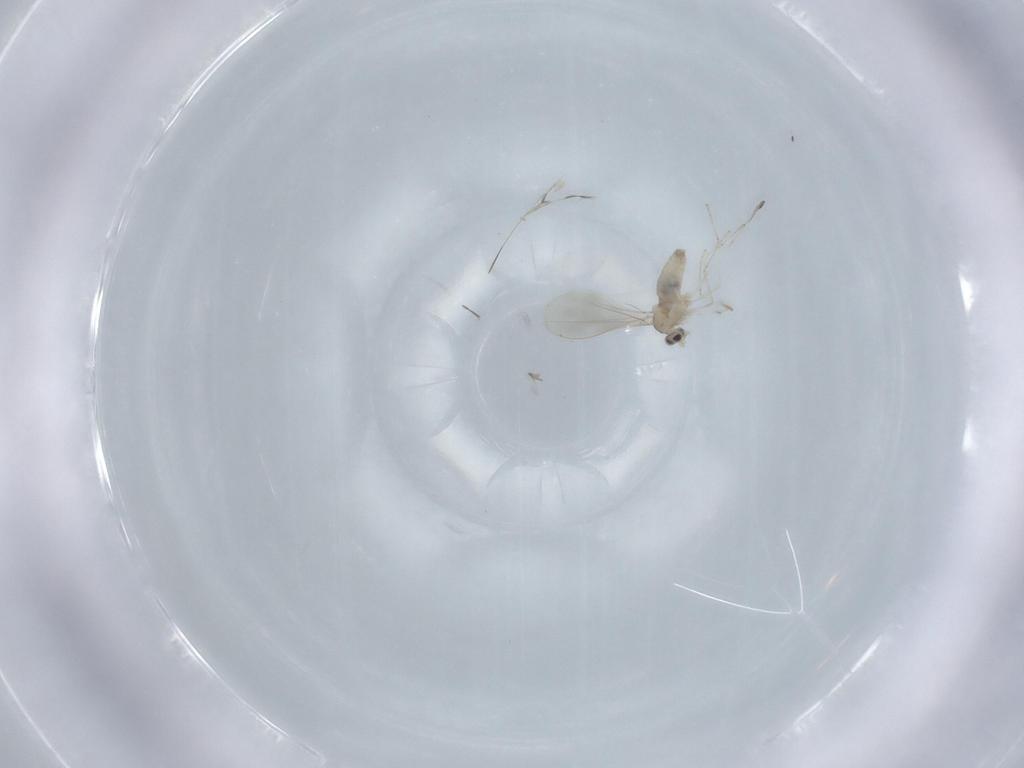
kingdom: Animalia
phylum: Arthropoda
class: Insecta
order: Diptera
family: Cecidomyiidae
